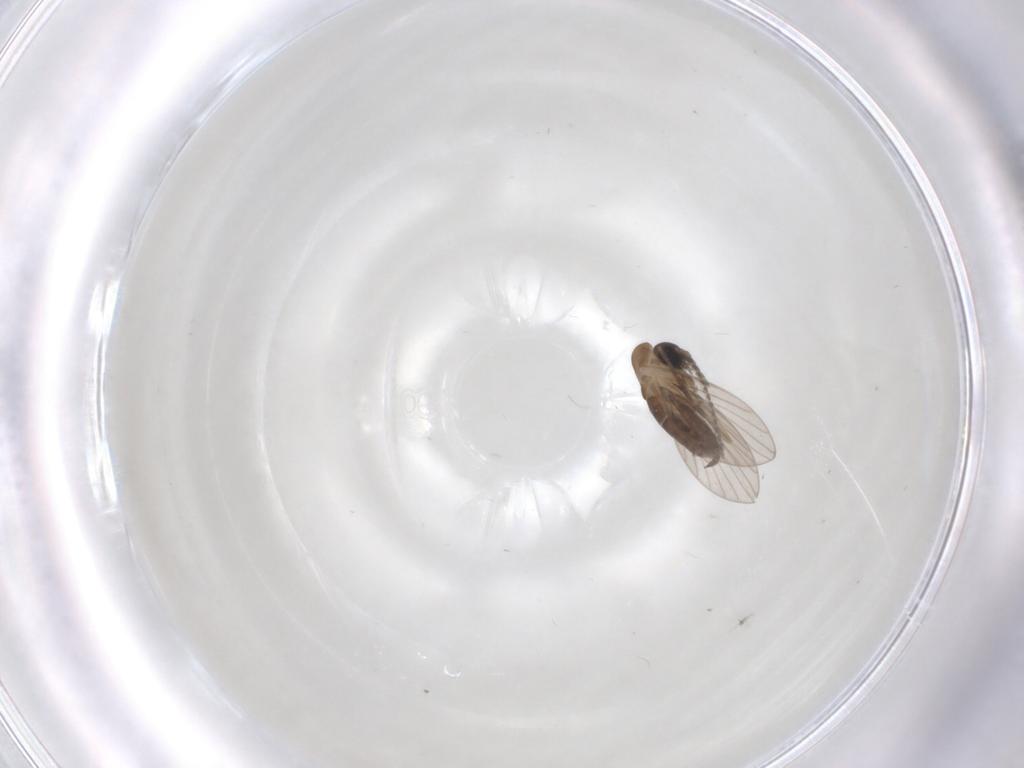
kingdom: Animalia
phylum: Arthropoda
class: Insecta
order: Diptera
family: Psychodidae
